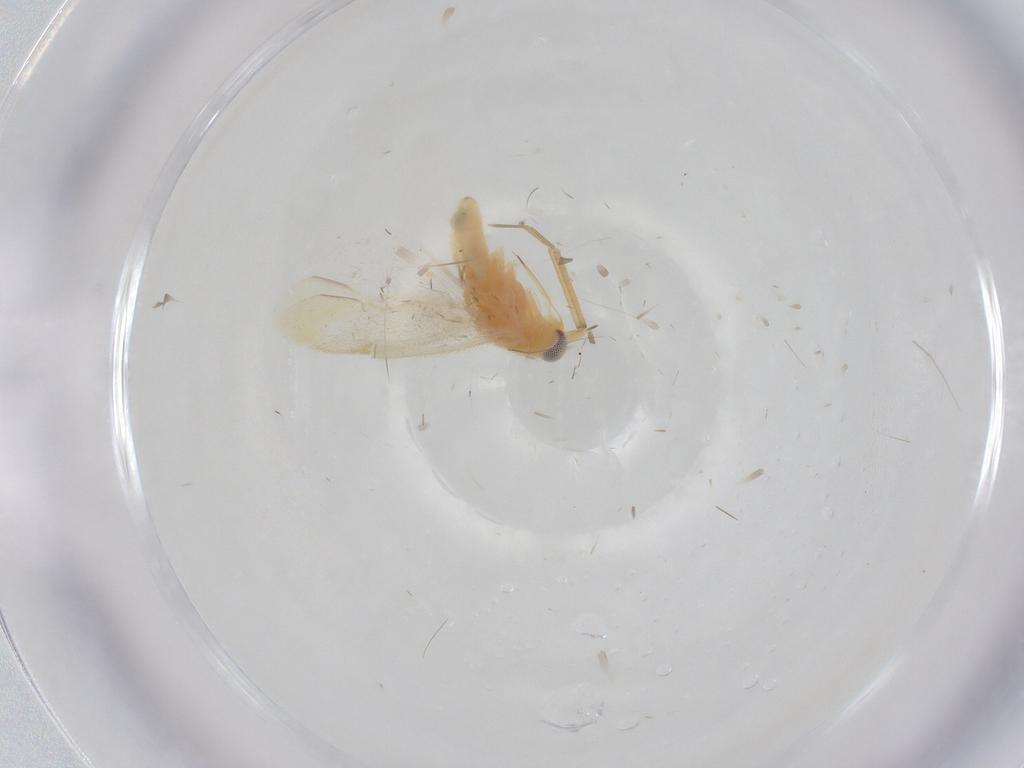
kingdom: Animalia
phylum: Arthropoda
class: Insecta
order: Hemiptera
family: Miridae
